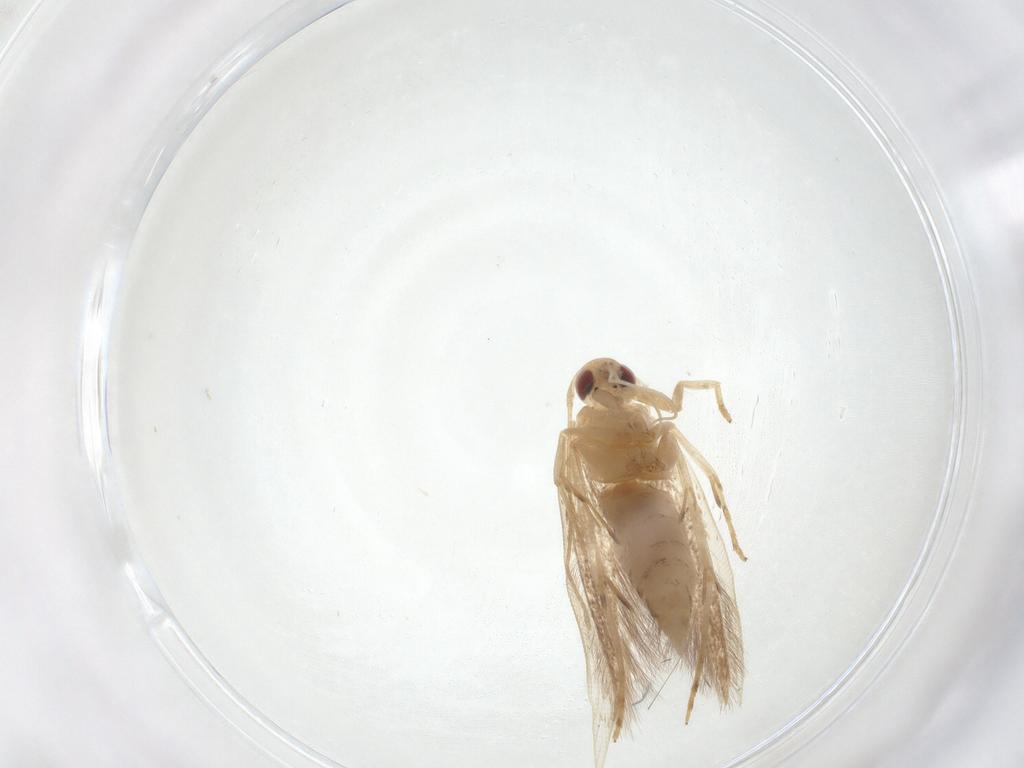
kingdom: Animalia
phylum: Arthropoda
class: Insecta
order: Lepidoptera
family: Erebidae
